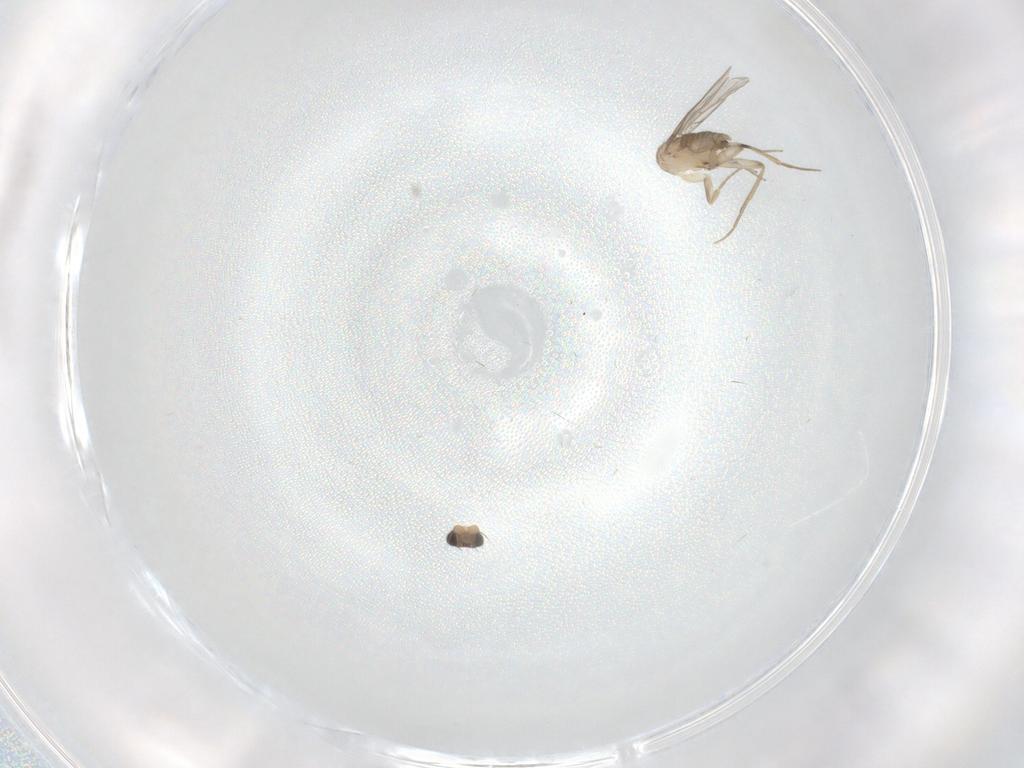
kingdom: Animalia
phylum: Arthropoda
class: Insecta
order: Diptera
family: Phoridae
